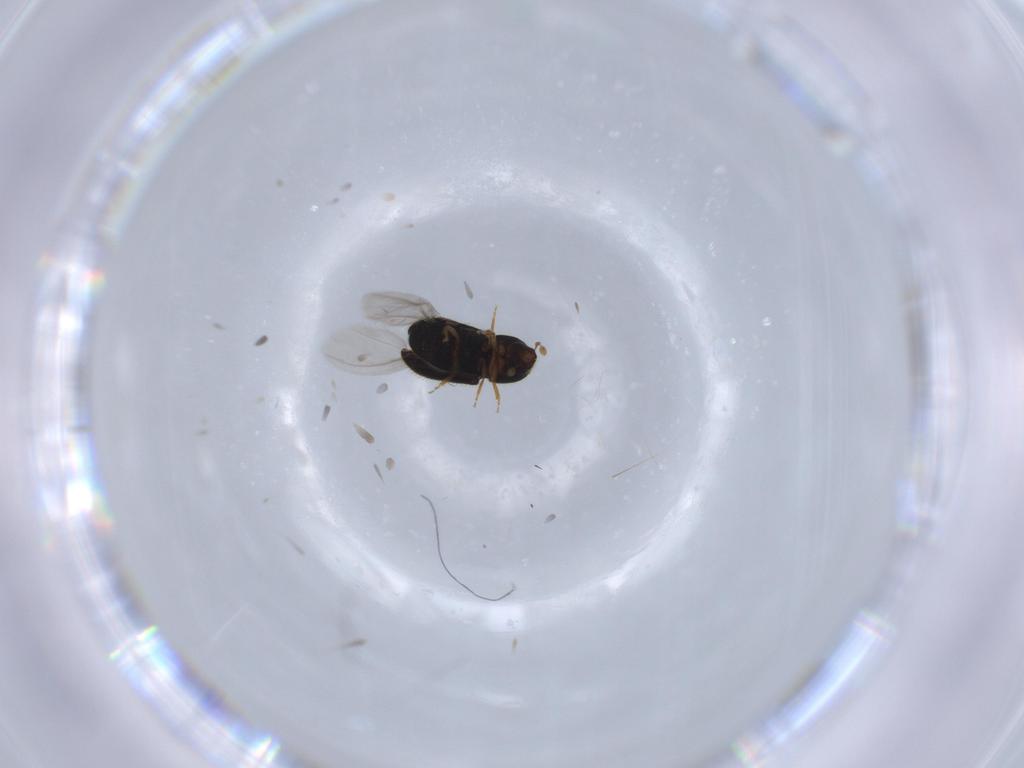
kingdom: Animalia
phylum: Arthropoda
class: Insecta
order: Coleoptera
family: Curculionidae
